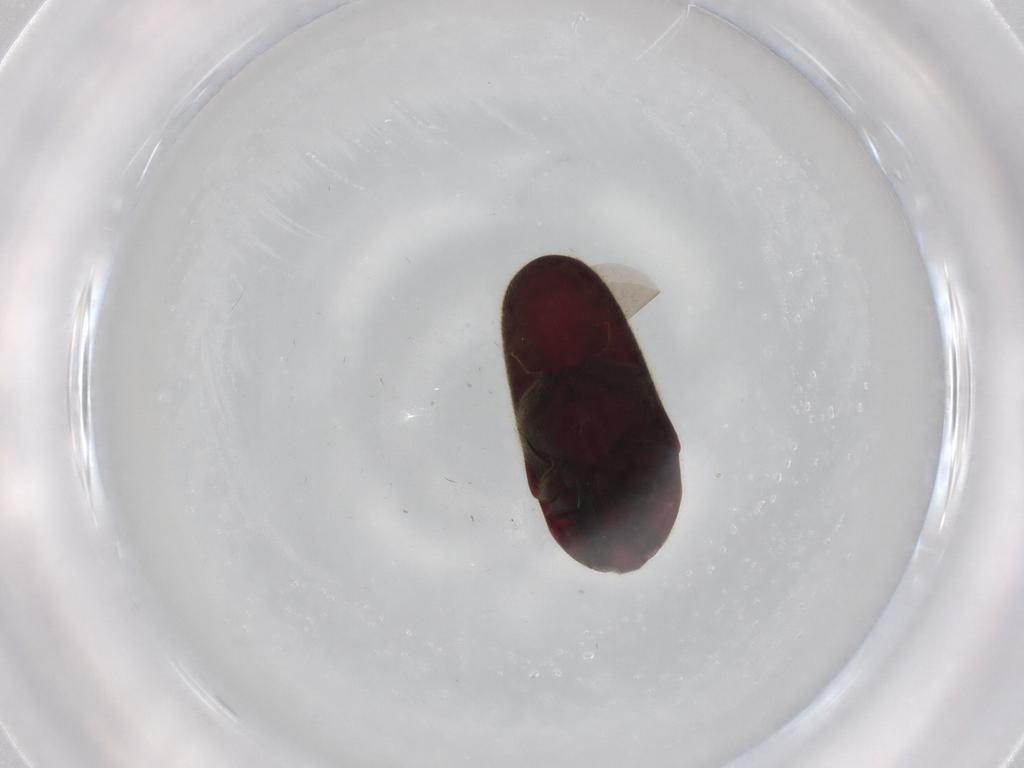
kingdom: Animalia
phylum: Arthropoda
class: Insecta
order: Coleoptera
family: Throscidae
